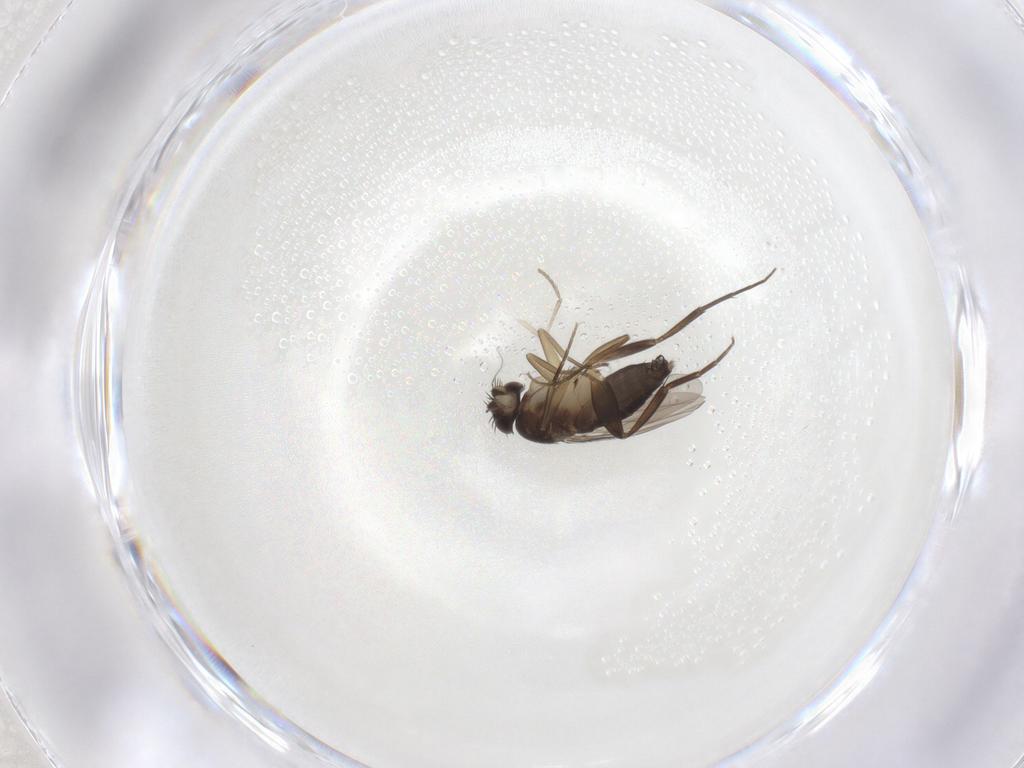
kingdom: Animalia
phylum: Arthropoda
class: Insecta
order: Diptera
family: Phoridae
